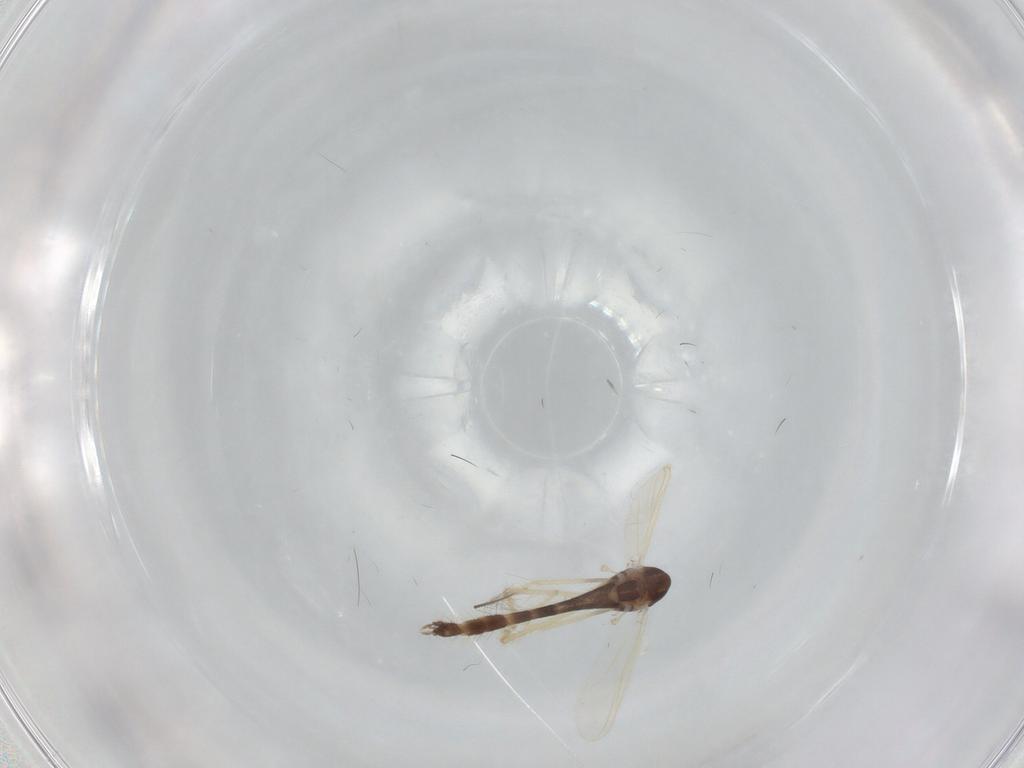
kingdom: Animalia
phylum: Arthropoda
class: Insecta
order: Diptera
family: Chironomidae
